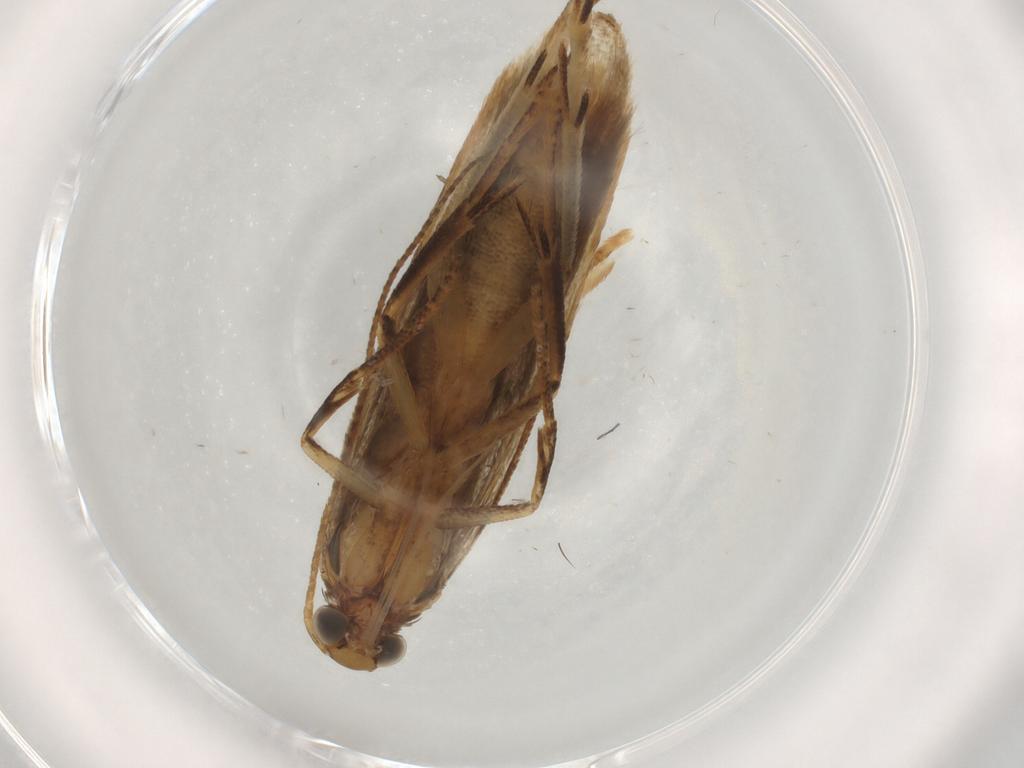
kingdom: Animalia
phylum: Arthropoda
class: Insecta
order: Lepidoptera
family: Gelechiidae
